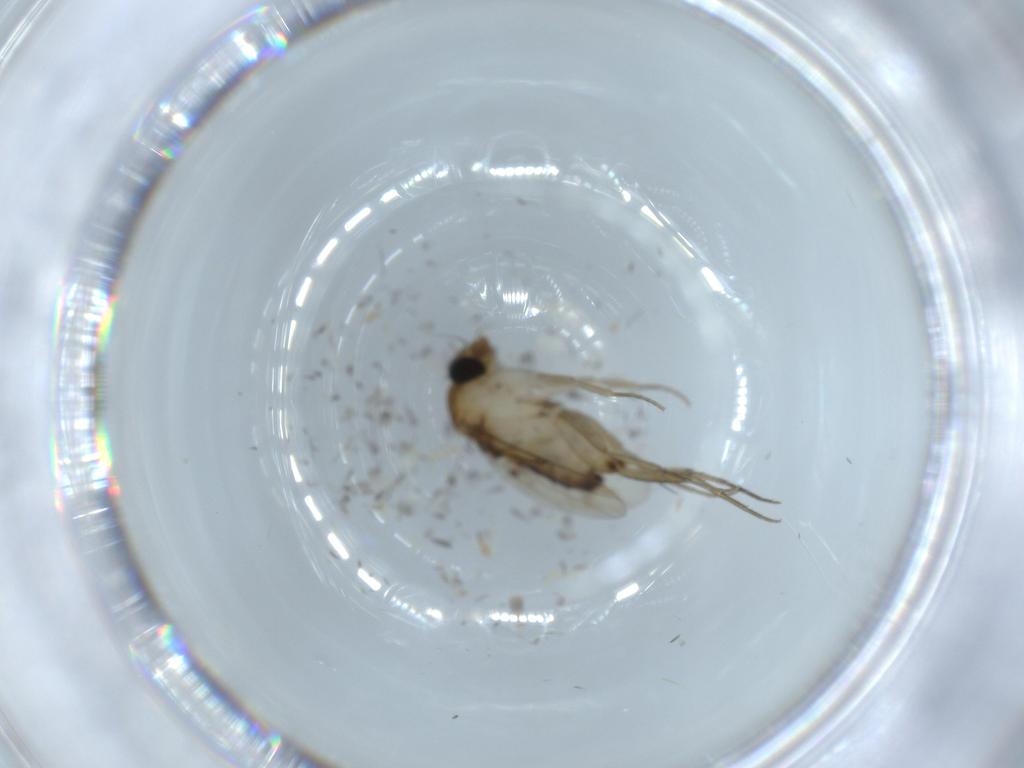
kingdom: Animalia
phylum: Arthropoda
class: Insecta
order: Diptera
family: Phoridae
